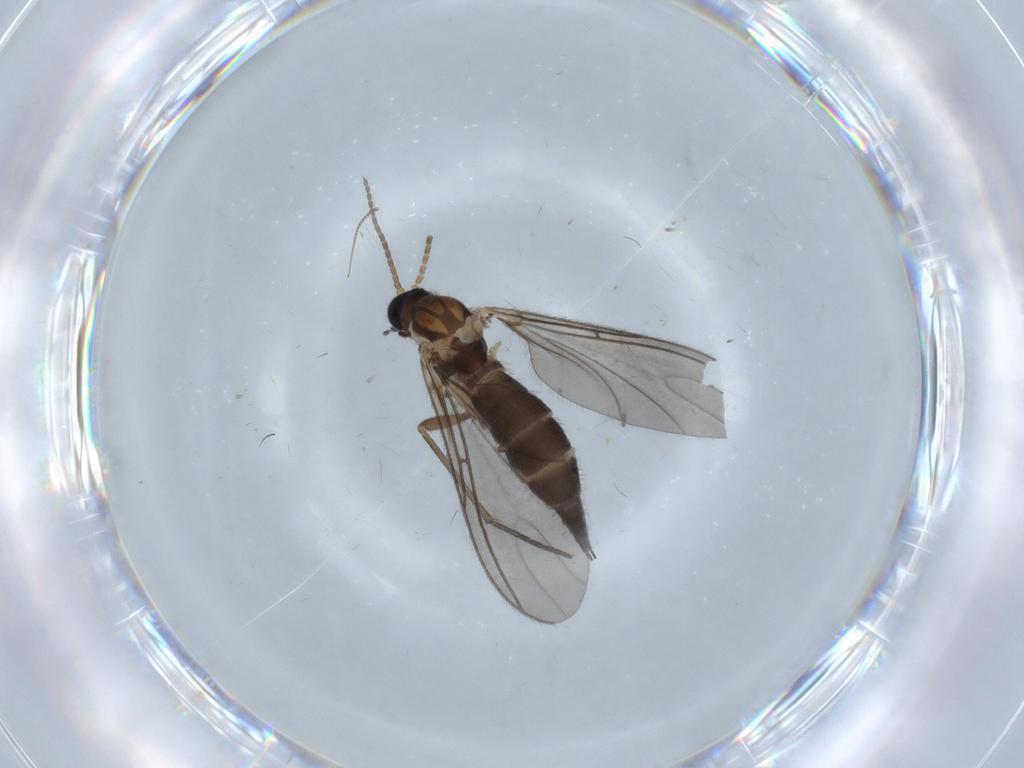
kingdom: Animalia
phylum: Arthropoda
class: Insecta
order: Diptera
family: Sciaridae
